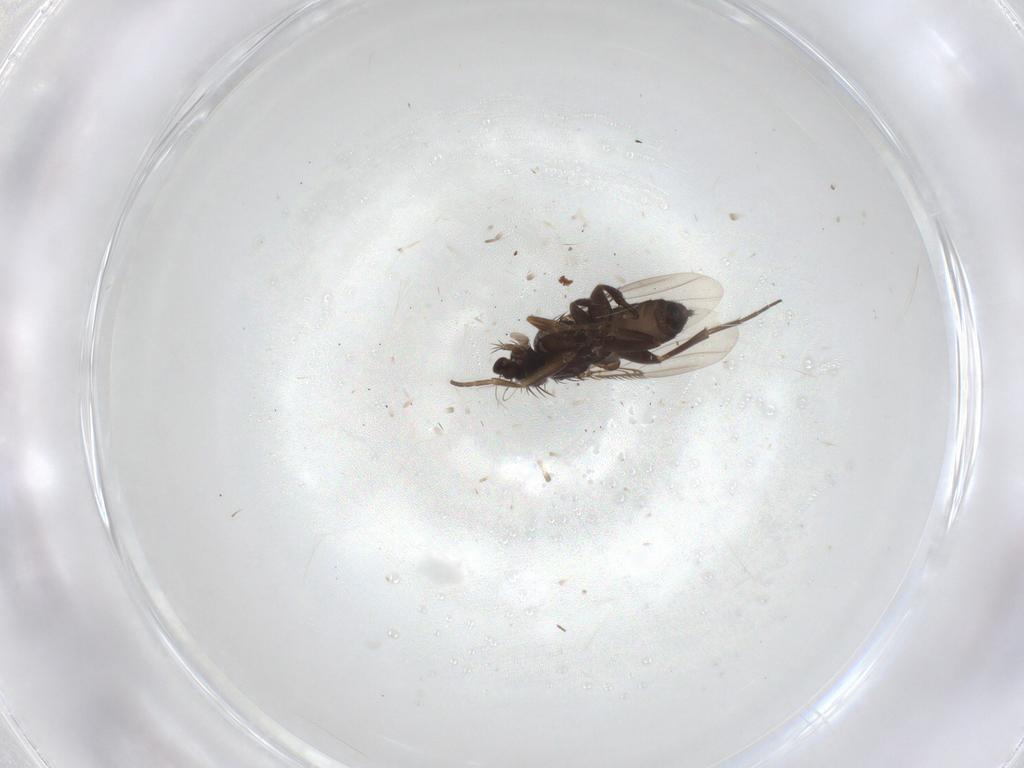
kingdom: Animalia
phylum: Arthropoda
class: Insecta
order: Diptera
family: Phoridae
